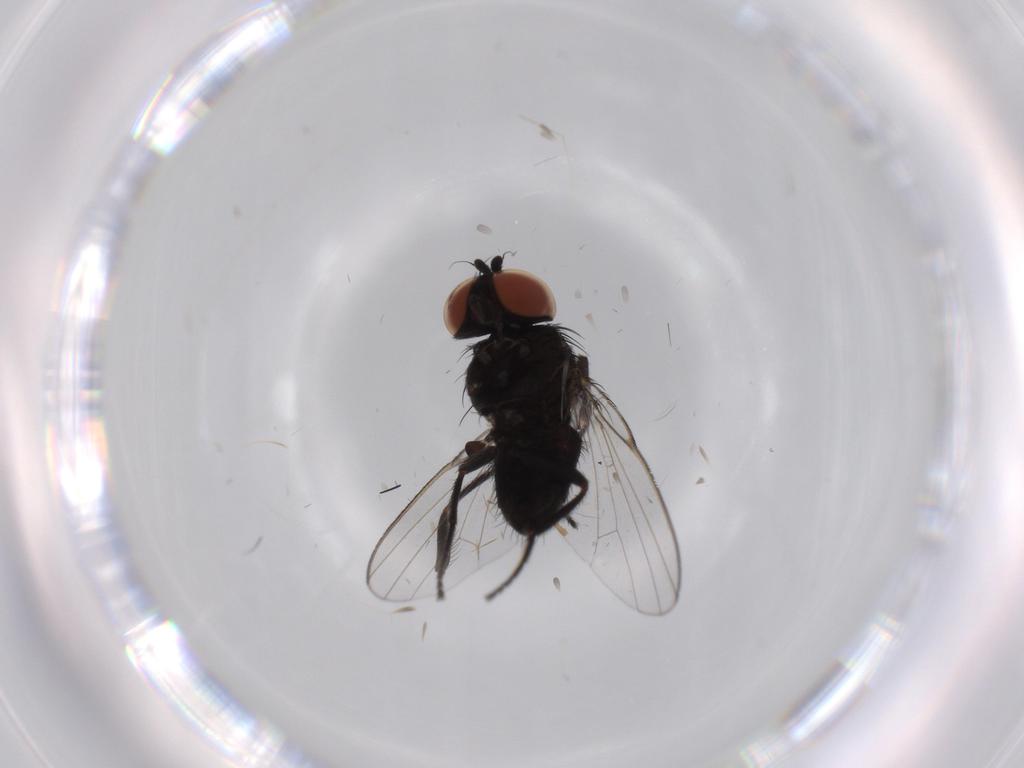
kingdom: Animalia
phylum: Arthropoda
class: Insecta
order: Diptera
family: Milichiidae
